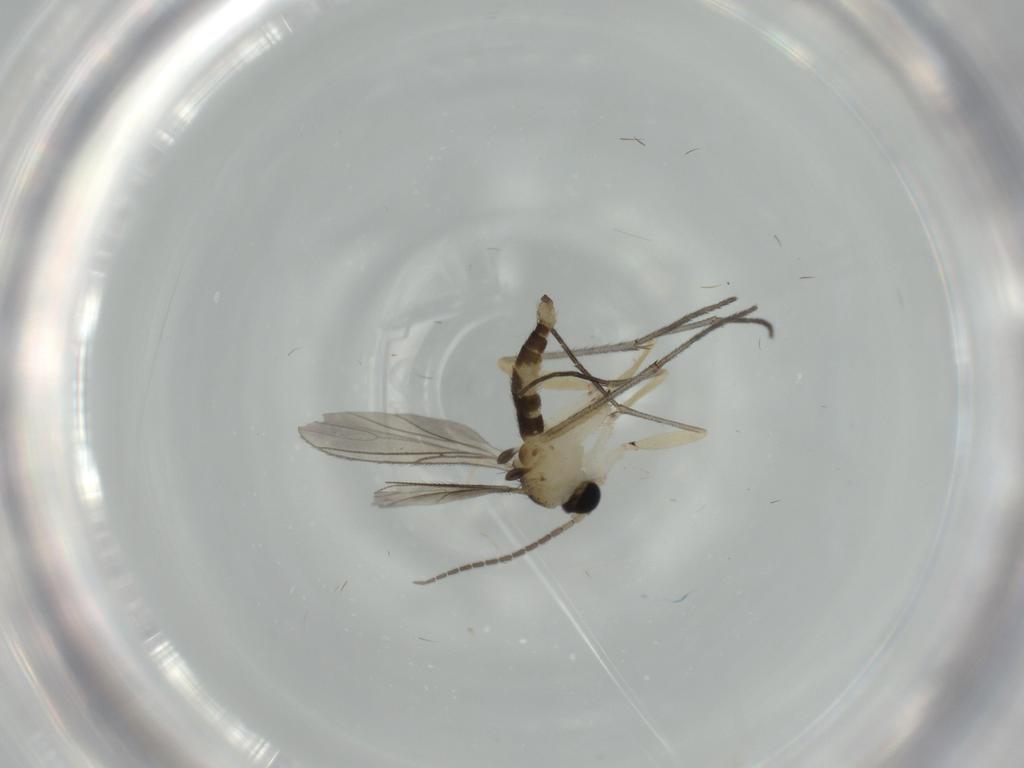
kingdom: Animalia
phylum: Arthropoda
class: Insecta
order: Diptera
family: Sciaridae
